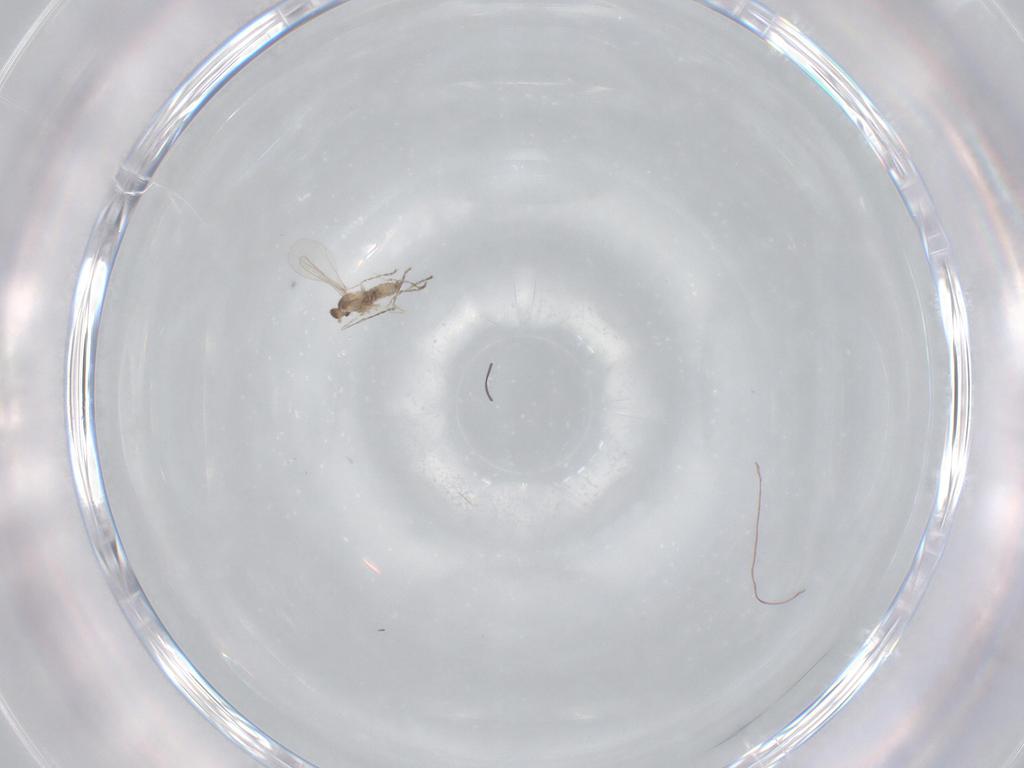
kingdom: Animalia
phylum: Arthropoda
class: Insecta
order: Diptera
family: Cecidomyiidae
